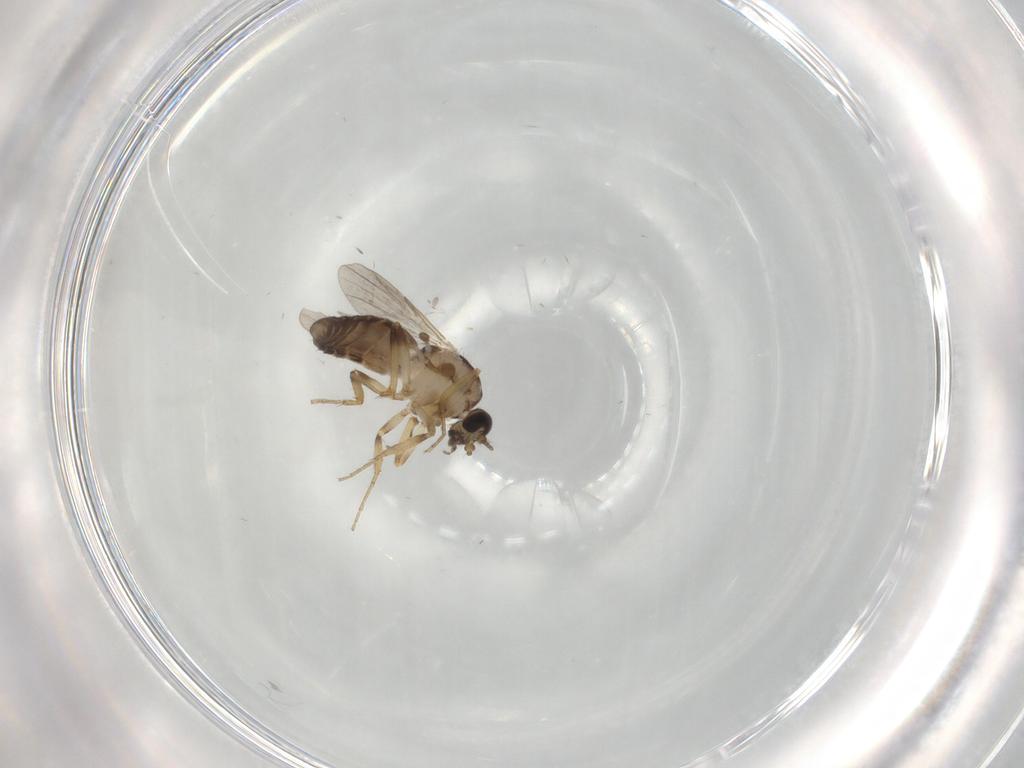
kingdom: Animalia
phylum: Arthropoda
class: Insecta
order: Diptera
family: Ceratopogonidae
